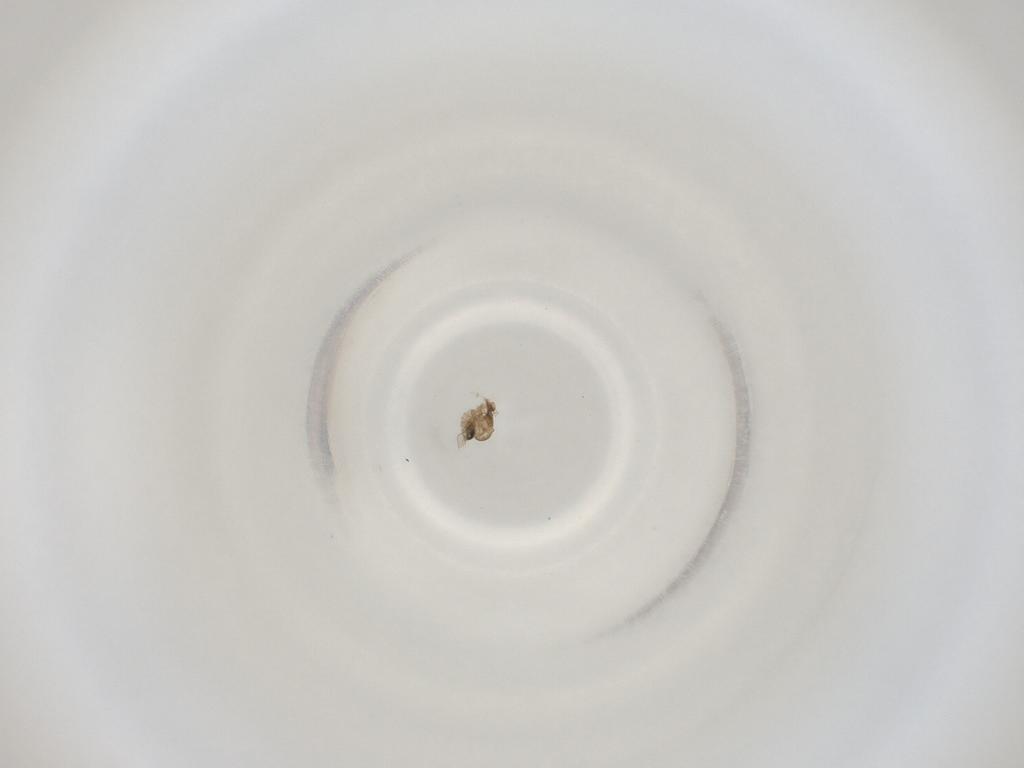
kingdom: Animalia
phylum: Arthropoda
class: Insecta
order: Diptera
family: Cecidomyiidae
